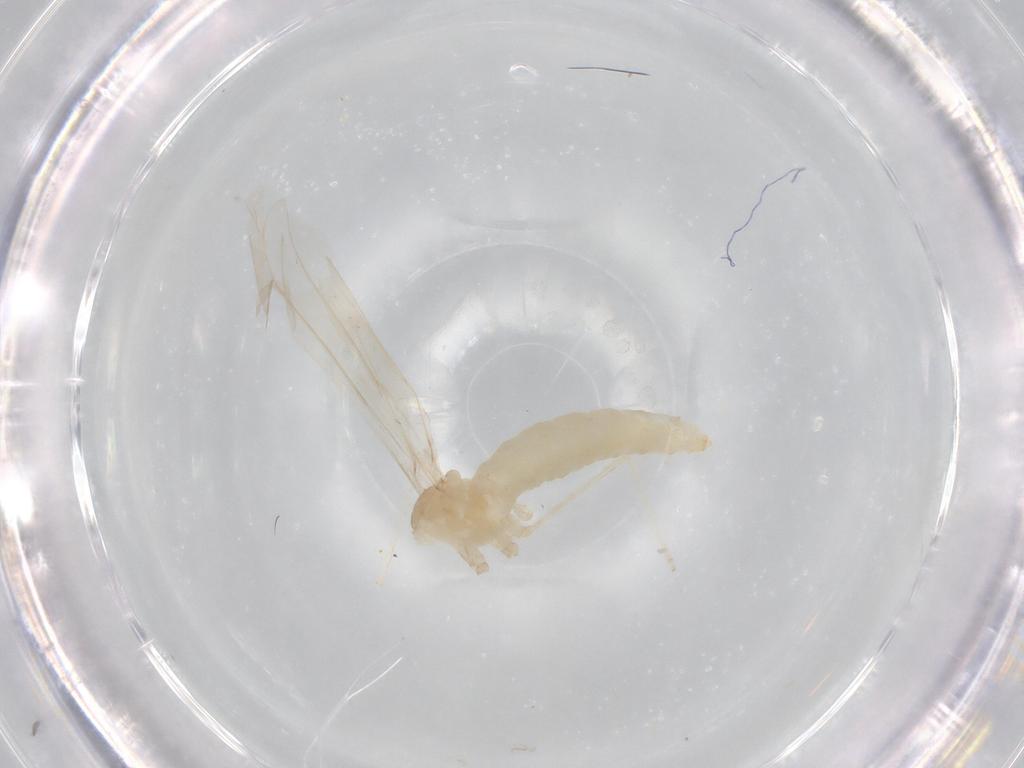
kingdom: Animalia
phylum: Arthropoda
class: Insecta
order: Diptera
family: Cecidomyiidae
